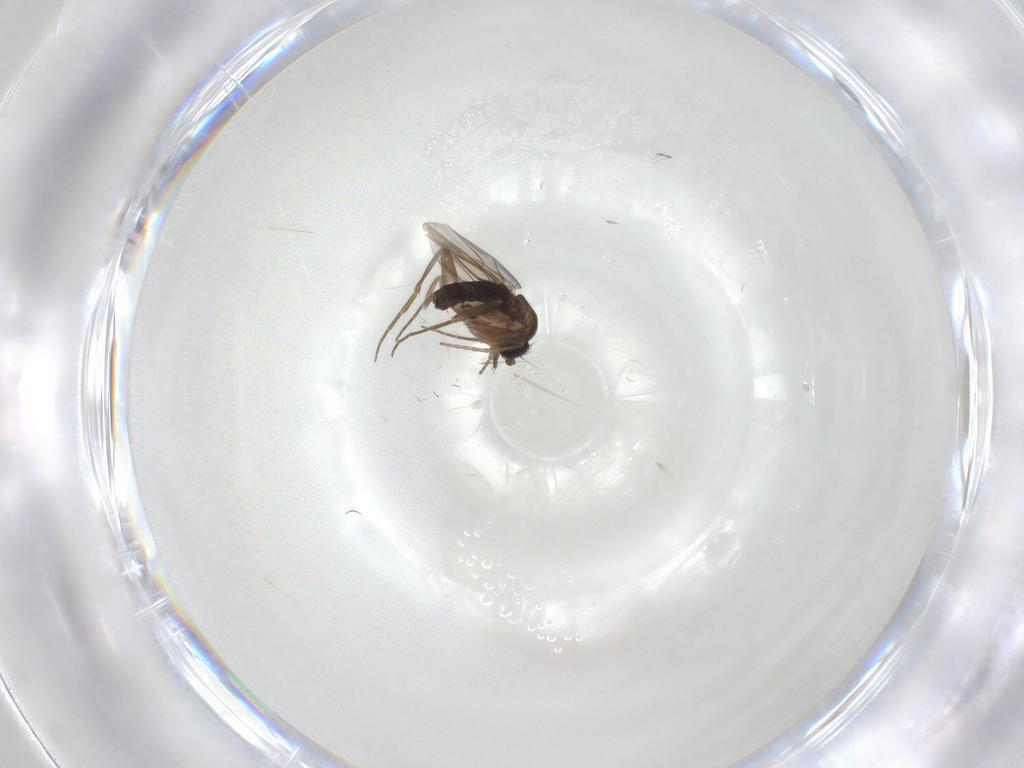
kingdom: Animalia
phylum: Arthropoda
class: Insecta
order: Diptera
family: Phoridae
